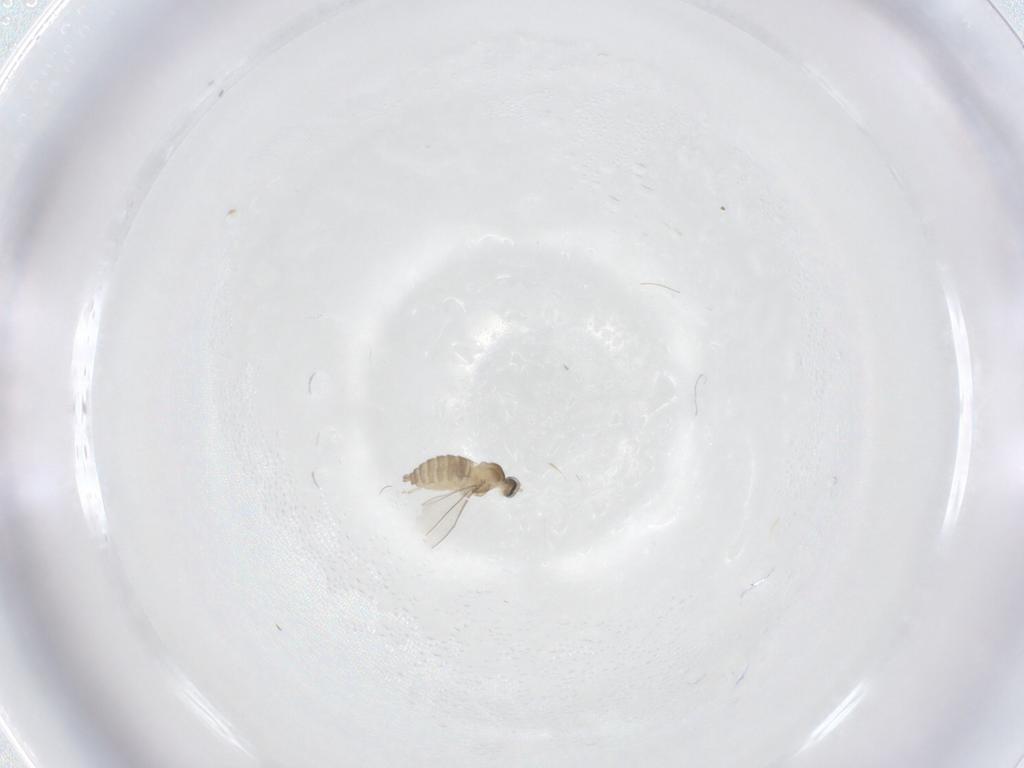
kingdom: Animalia
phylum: Arthropoda
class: Insecta
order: Diptera
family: Cecidomyiidae
